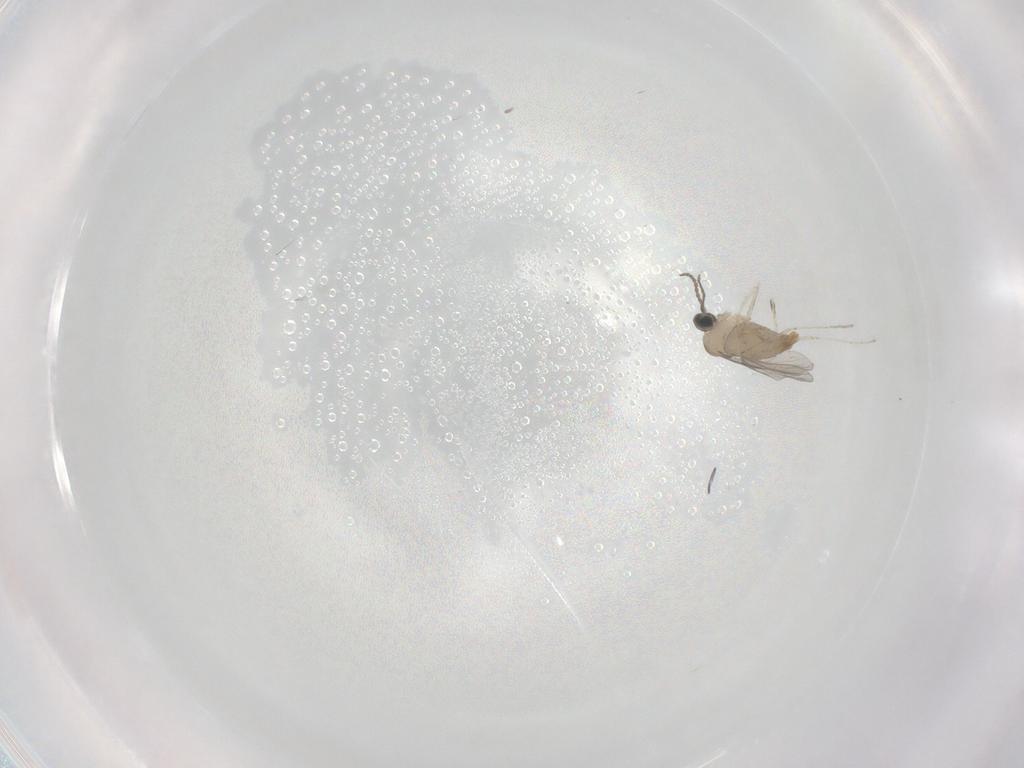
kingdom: Animalia
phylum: Arthropoda
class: Insecta
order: Diptera
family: Cecidomyiidae
